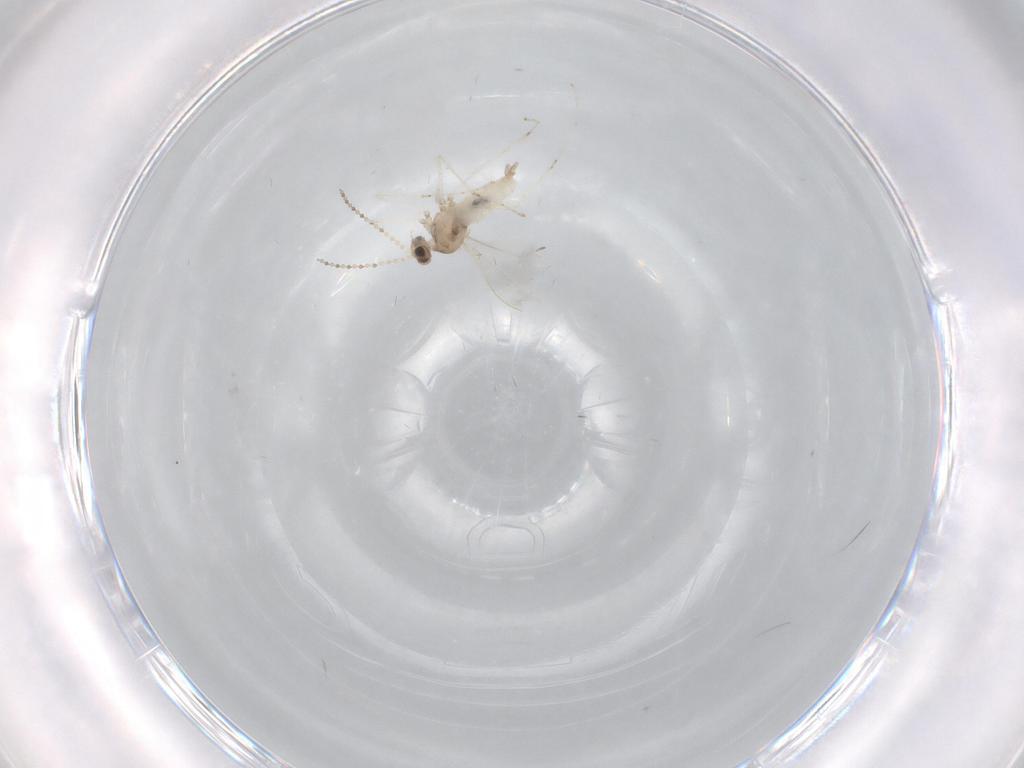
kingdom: Animalia
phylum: Arthropoda
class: Insecta
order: Diptera
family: Cecidomyiidae
